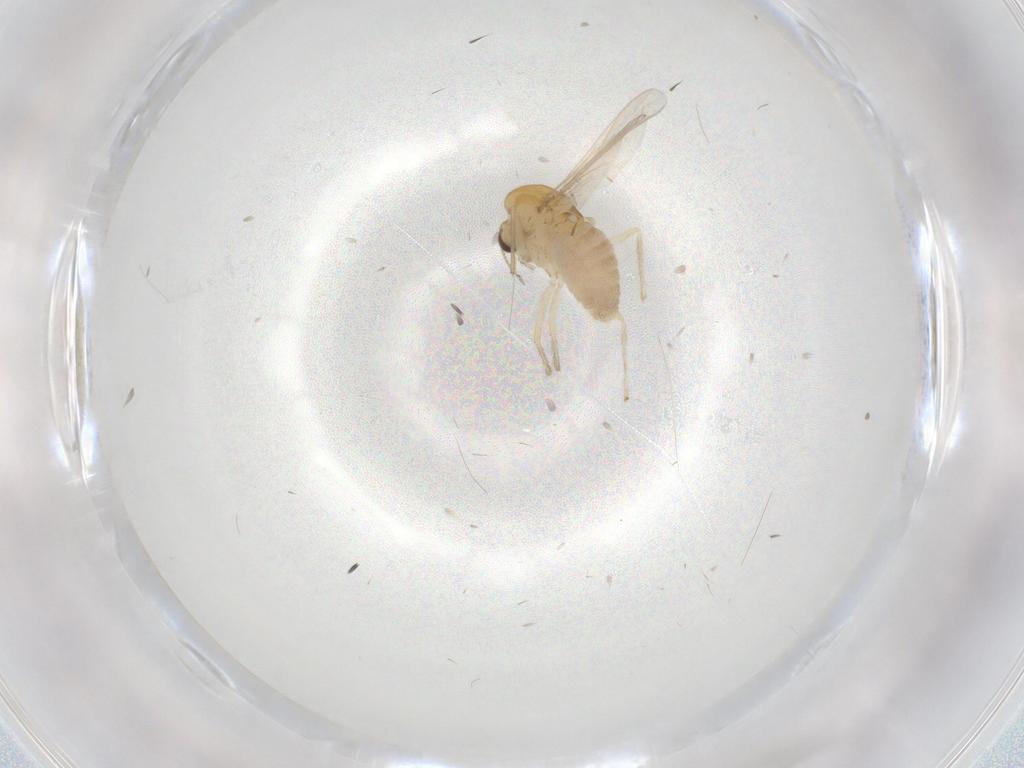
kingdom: Animalia
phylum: Arthropoda
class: Insecta
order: Diptera
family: Chironomidae
